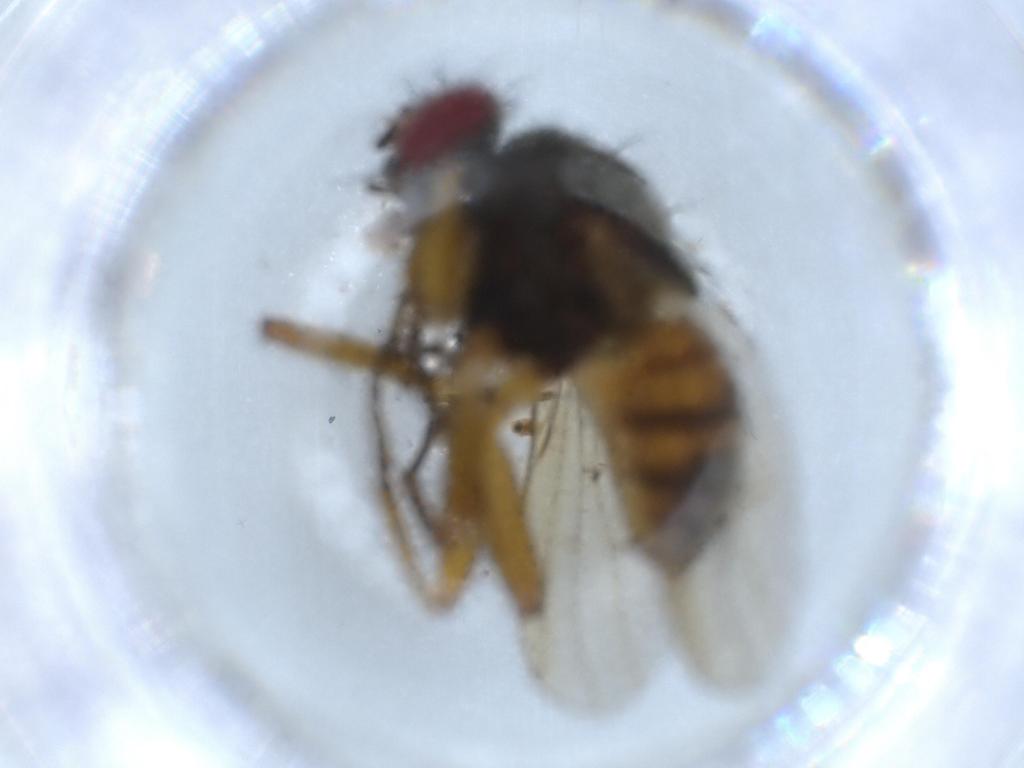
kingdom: Animalia
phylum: Arthropoda
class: Insecta
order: Diptera
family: Muscidae
